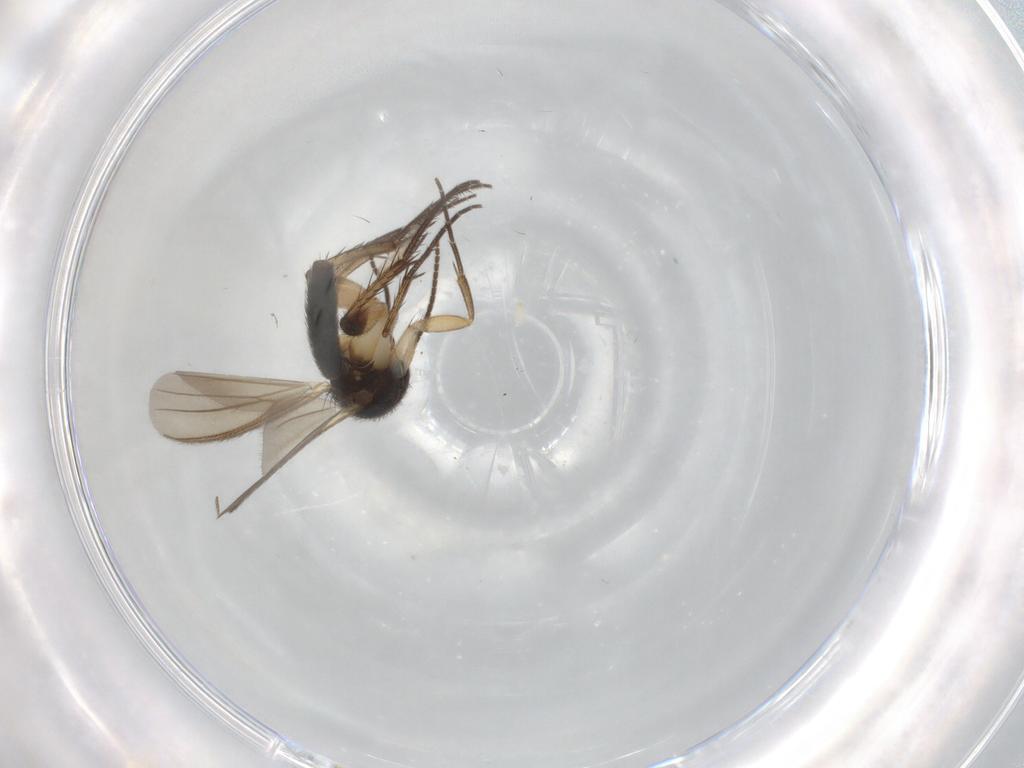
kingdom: Animalia
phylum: Arthropoda
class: Insecta
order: Diptera
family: Mycetophilidae
